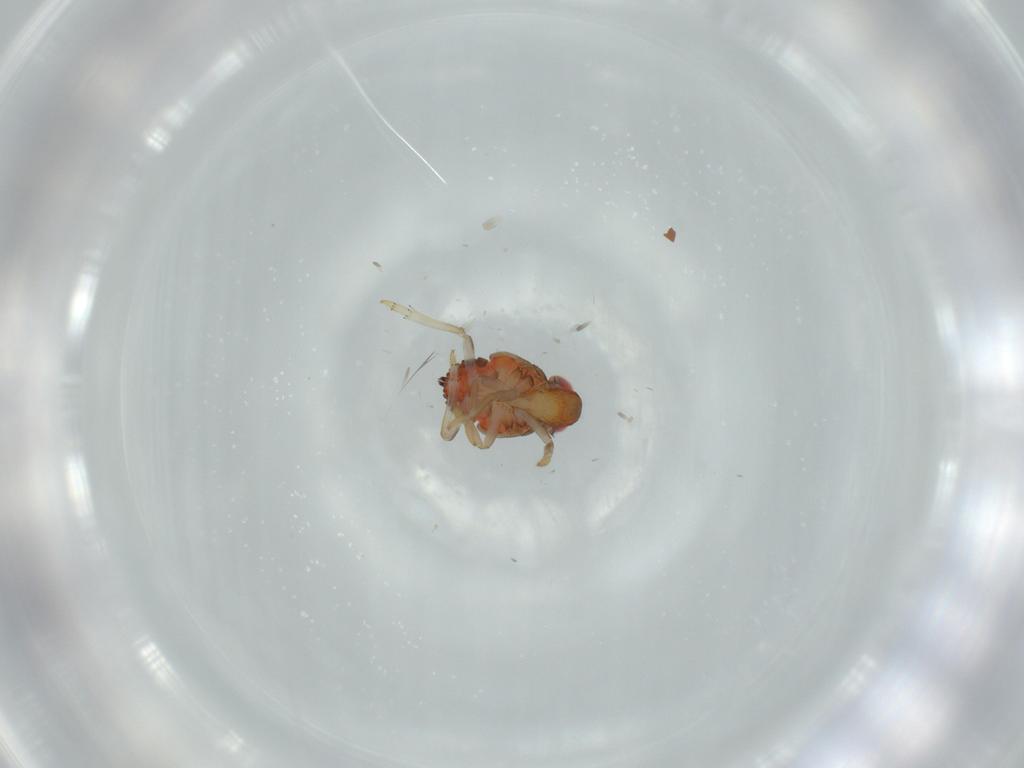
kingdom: Animalia
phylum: Arthropoda
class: Insecta
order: Hemiptera
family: Issidae
